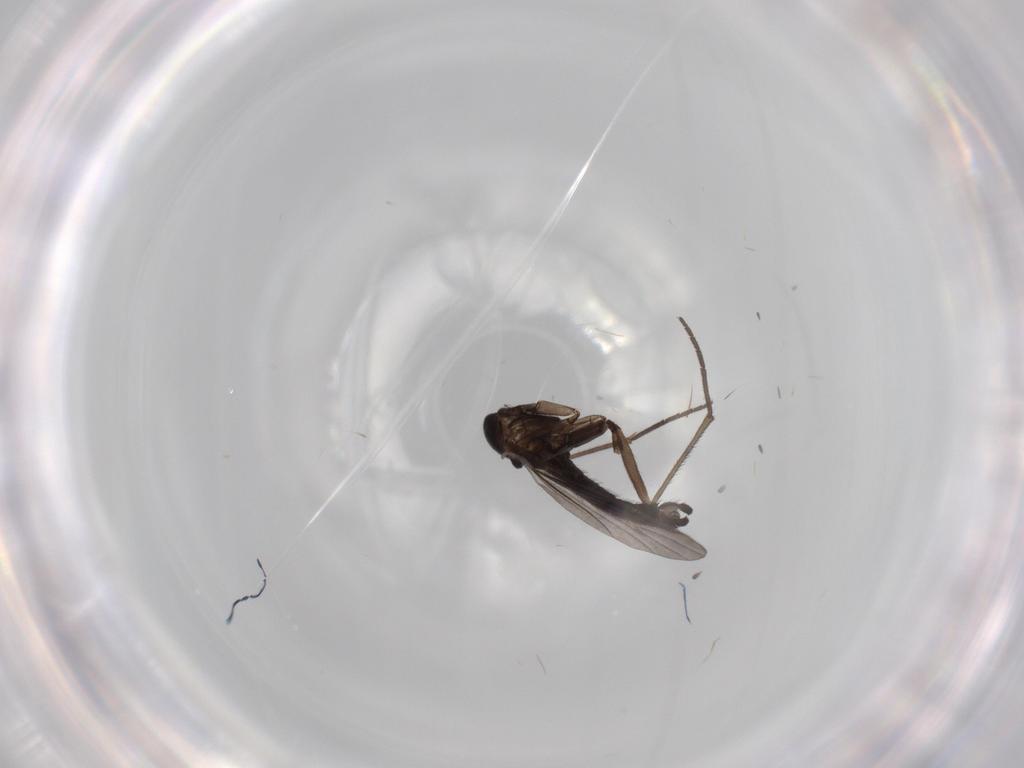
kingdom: Animalia
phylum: Arthropoda
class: Insecta
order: Diptera
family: Sciaridae
